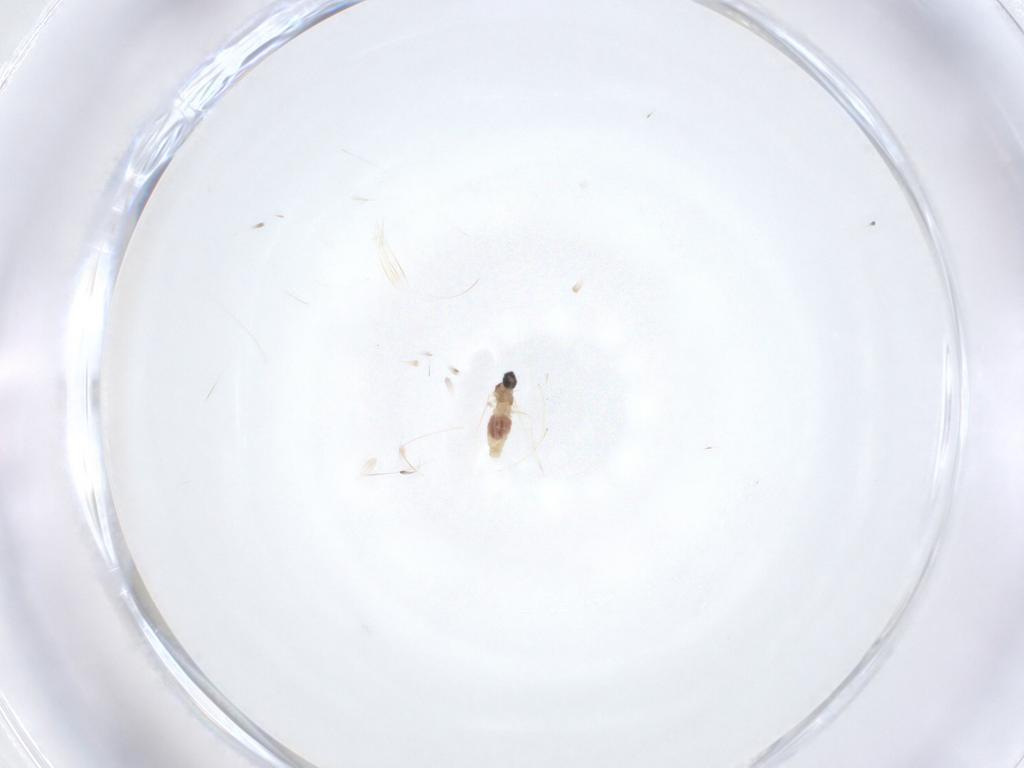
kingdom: Animalia
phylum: Arthropoda
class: Insecta
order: Diptera
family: Cecidomyiidae
